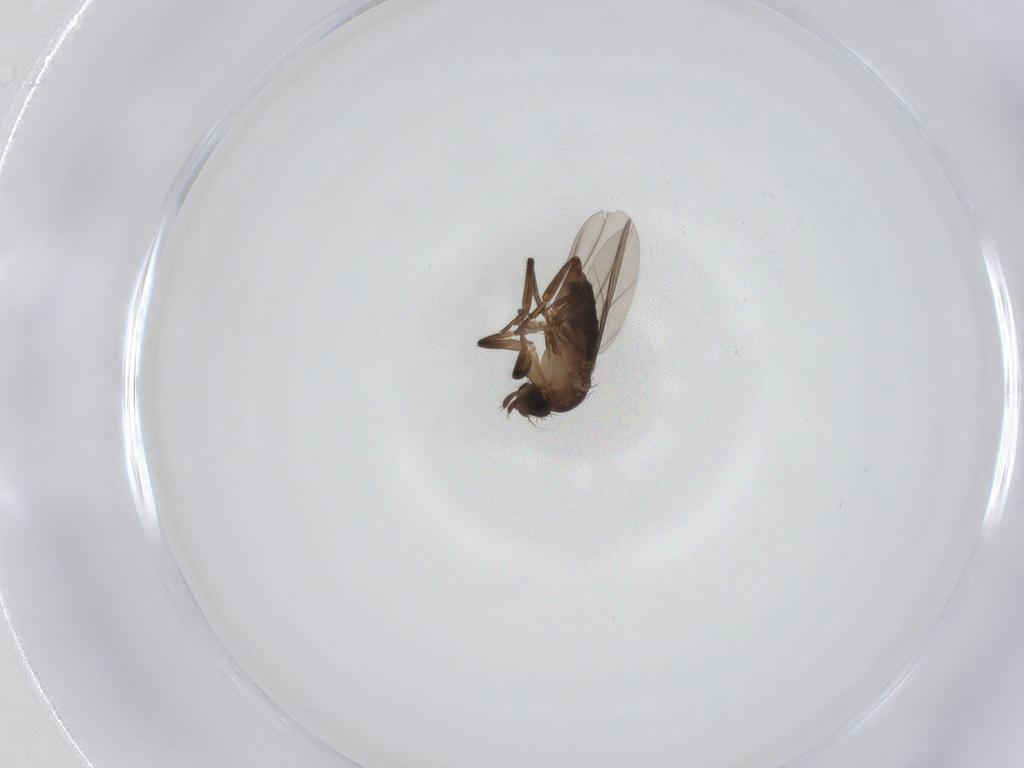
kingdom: Animalia
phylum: Arthropoda
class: Insecta
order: Diptera
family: Phoridae
